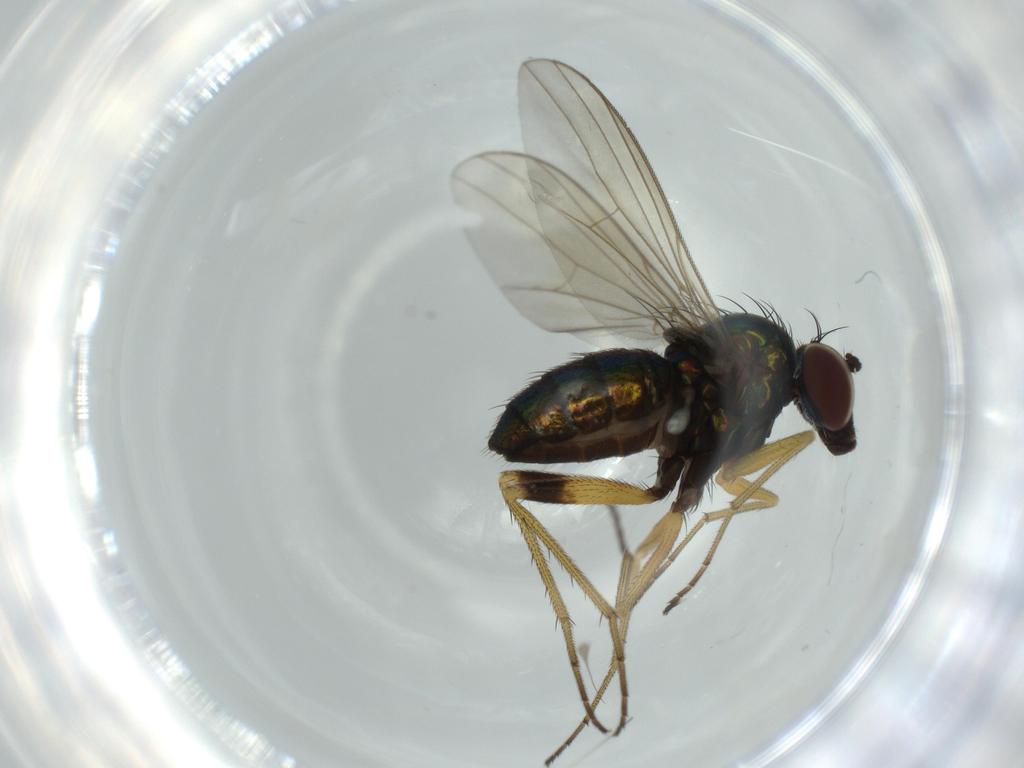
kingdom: Animalia
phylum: Arthropoda
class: Insecta
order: Diptera
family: Dolichopodidae
